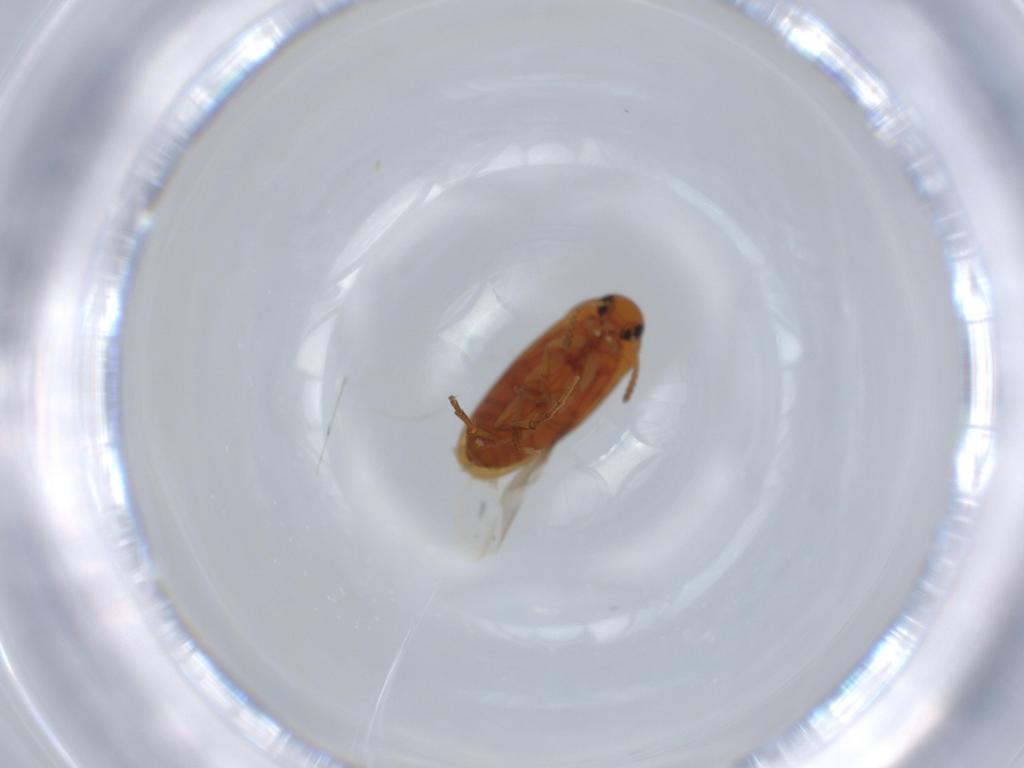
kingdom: Animalia
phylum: Arthropoda
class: Insecta
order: Coleoptera
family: Scraptiidae
